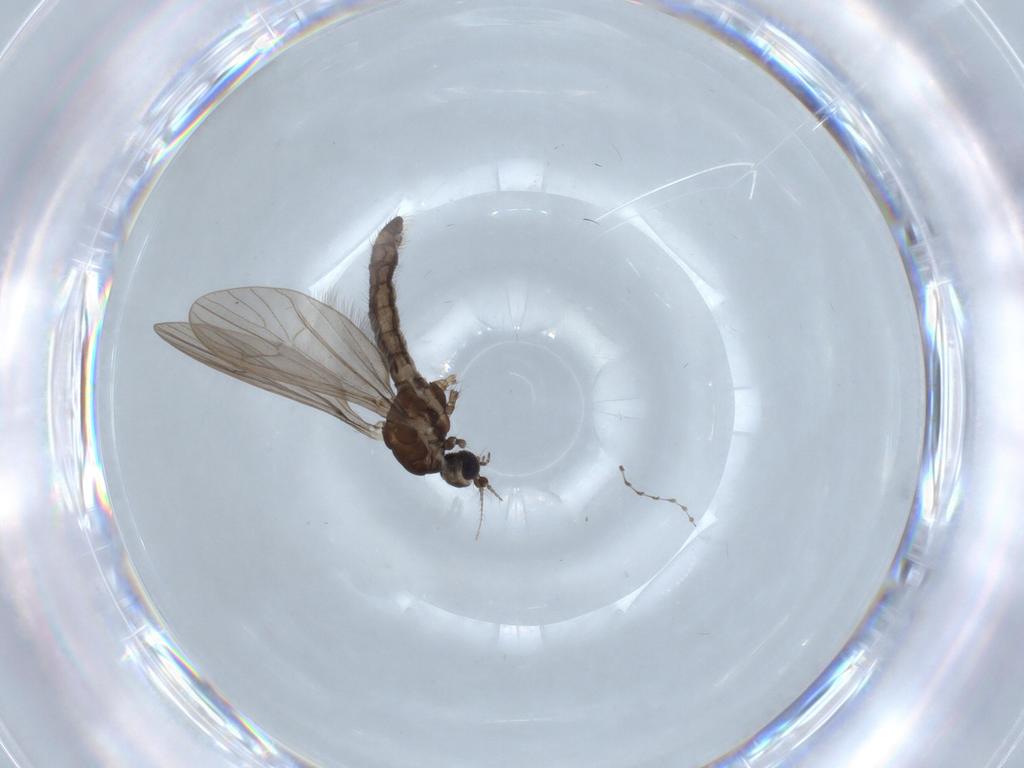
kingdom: Animalia
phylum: Arthropoda
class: Insecta
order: Diptera
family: Limoniidae
